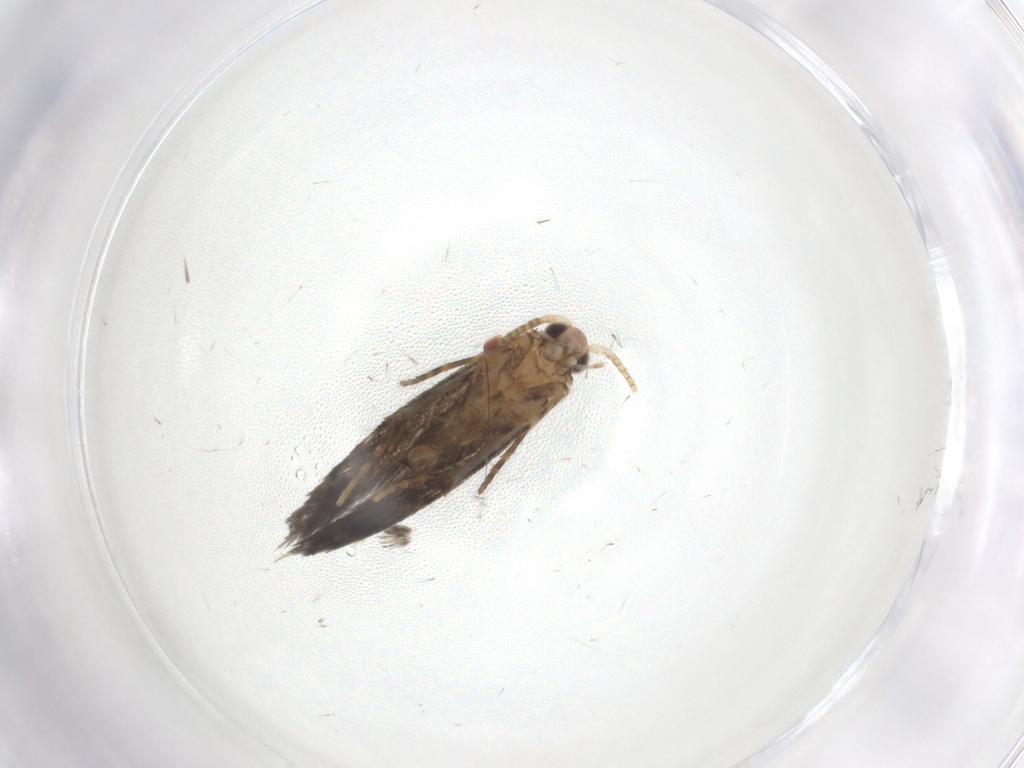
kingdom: Animalia
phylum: Arthropoda
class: Insecta
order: Lepidoptera
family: Tineidae
